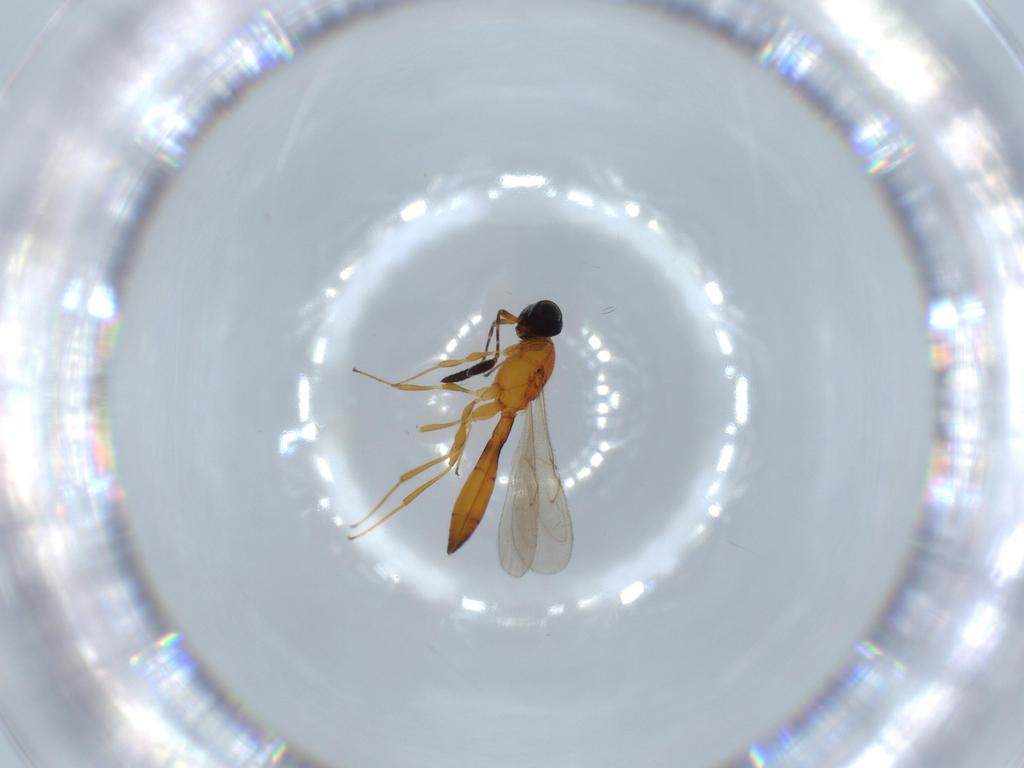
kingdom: Animalia
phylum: Arthropoda
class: Insecta
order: Hymenoptera
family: Scelionidae
